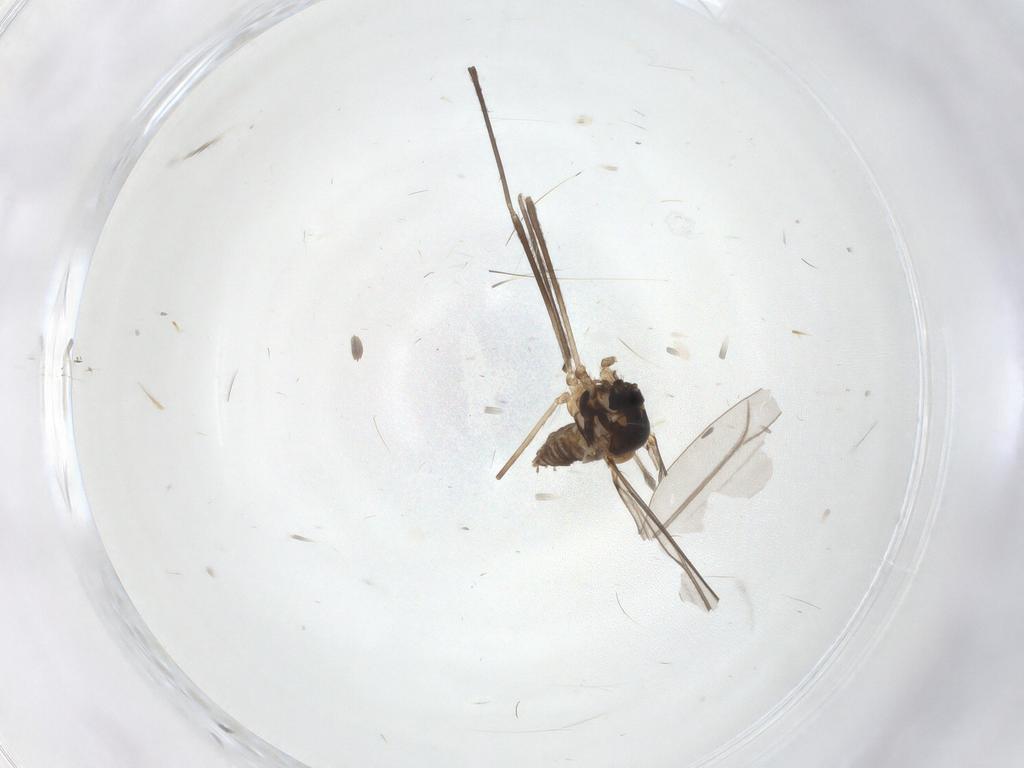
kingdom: Animalia
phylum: Arthropoda
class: Insecta
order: Diptera
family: Cecidomyiidae
